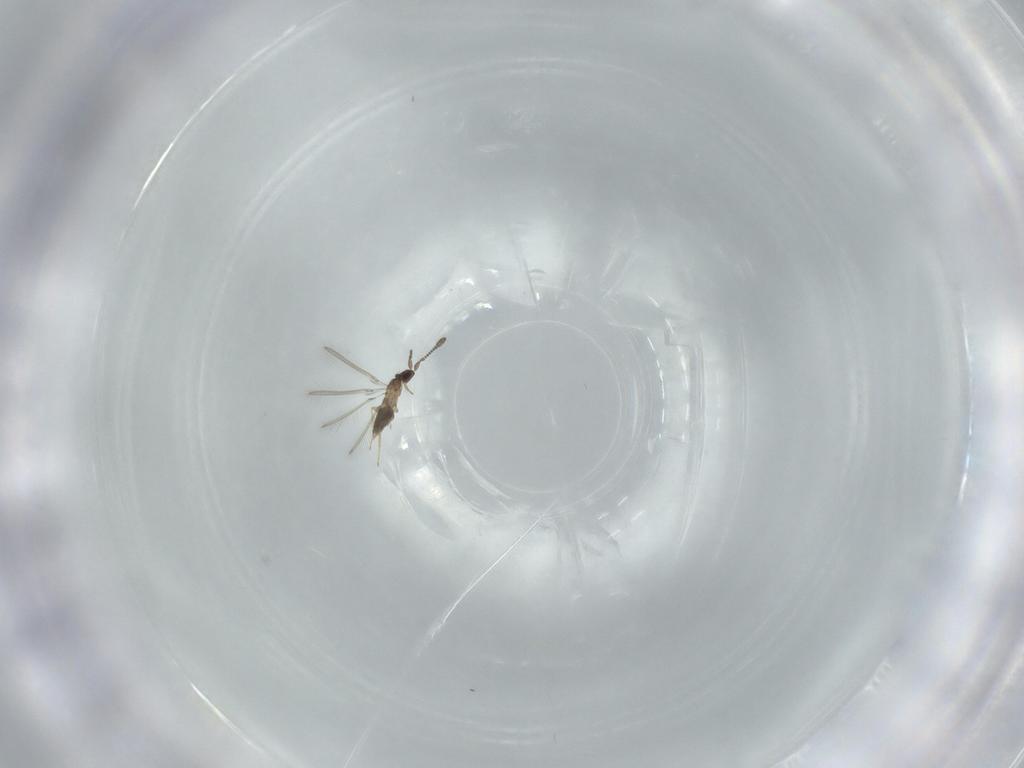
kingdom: Animalia
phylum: Arthropoda
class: Insecta
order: Hymenoptera
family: Mymaridae
